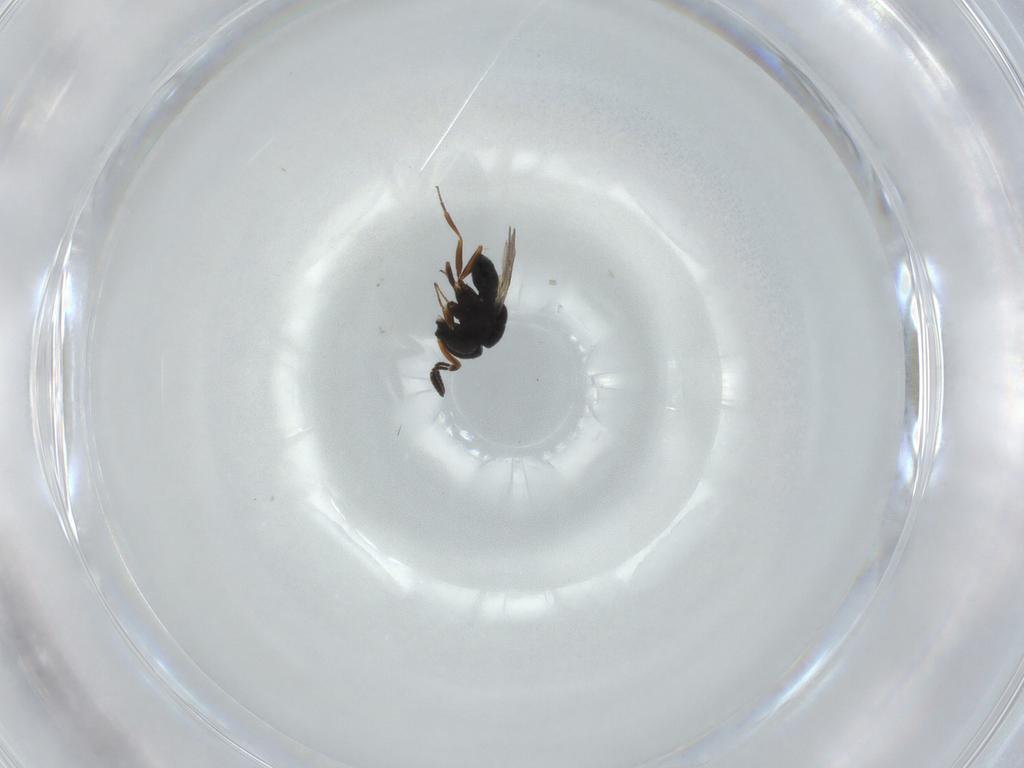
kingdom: Animalia
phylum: Arthropoda
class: Insecta
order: Hymenoptera
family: Scelionidae
